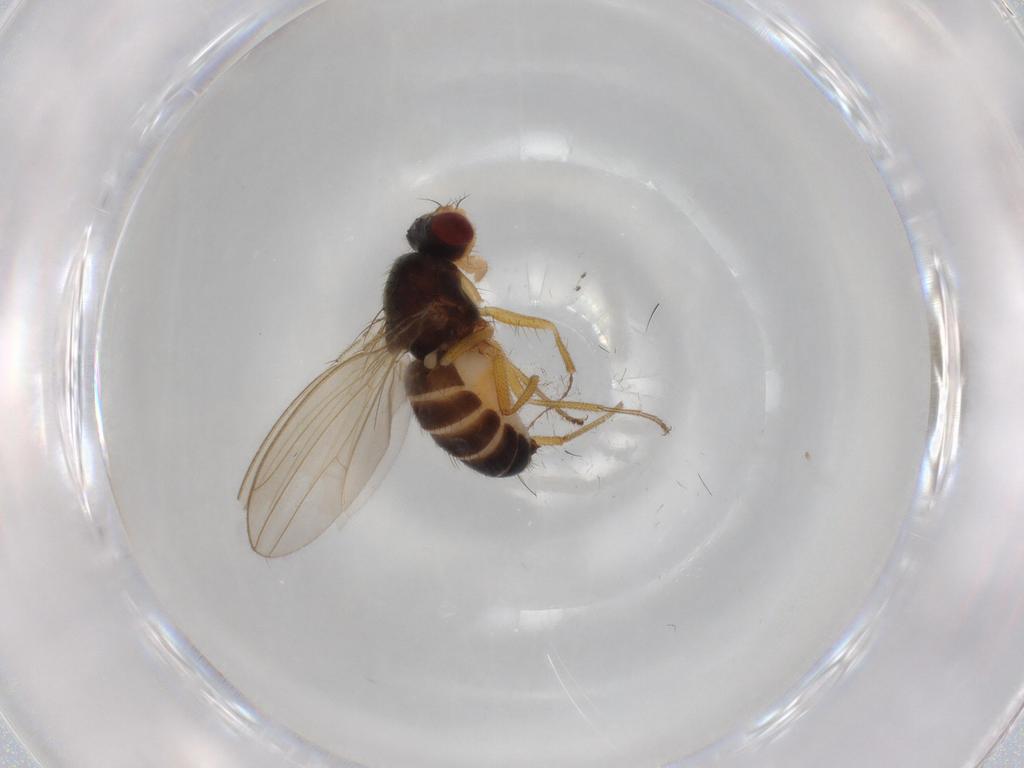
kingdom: Animalia
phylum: Arthropoda
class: Insecta
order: Diptera
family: Drosophilidae
